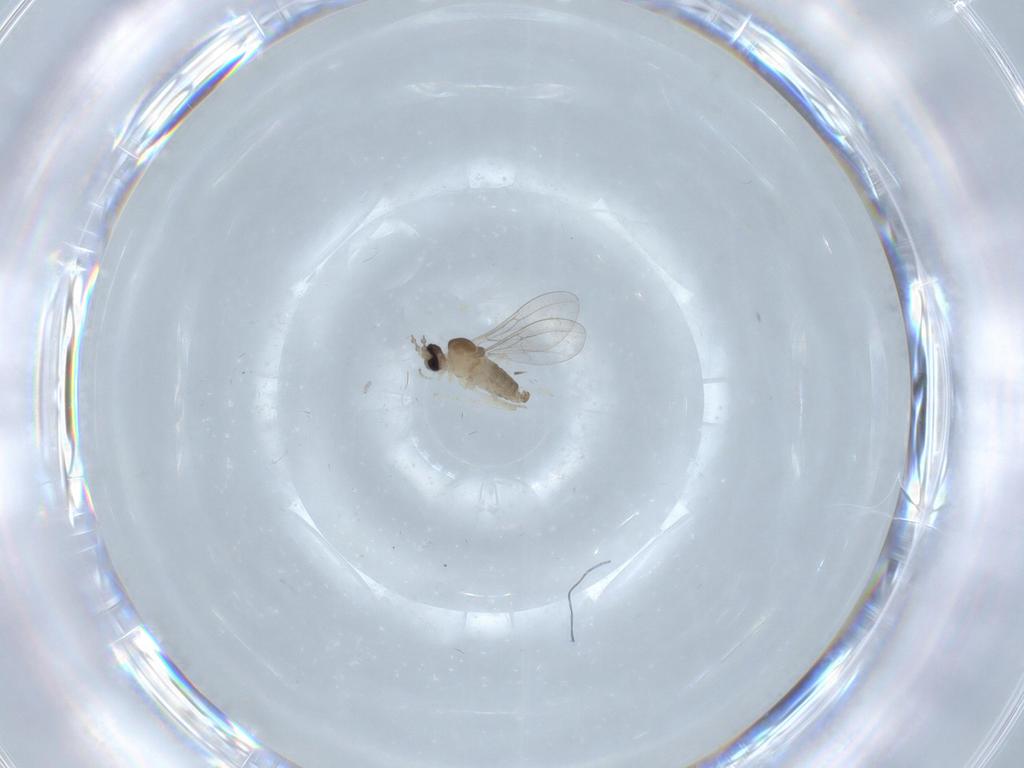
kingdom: Animalia
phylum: Arthropoda
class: Insecta
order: Diptera
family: Cecidomyiidae
